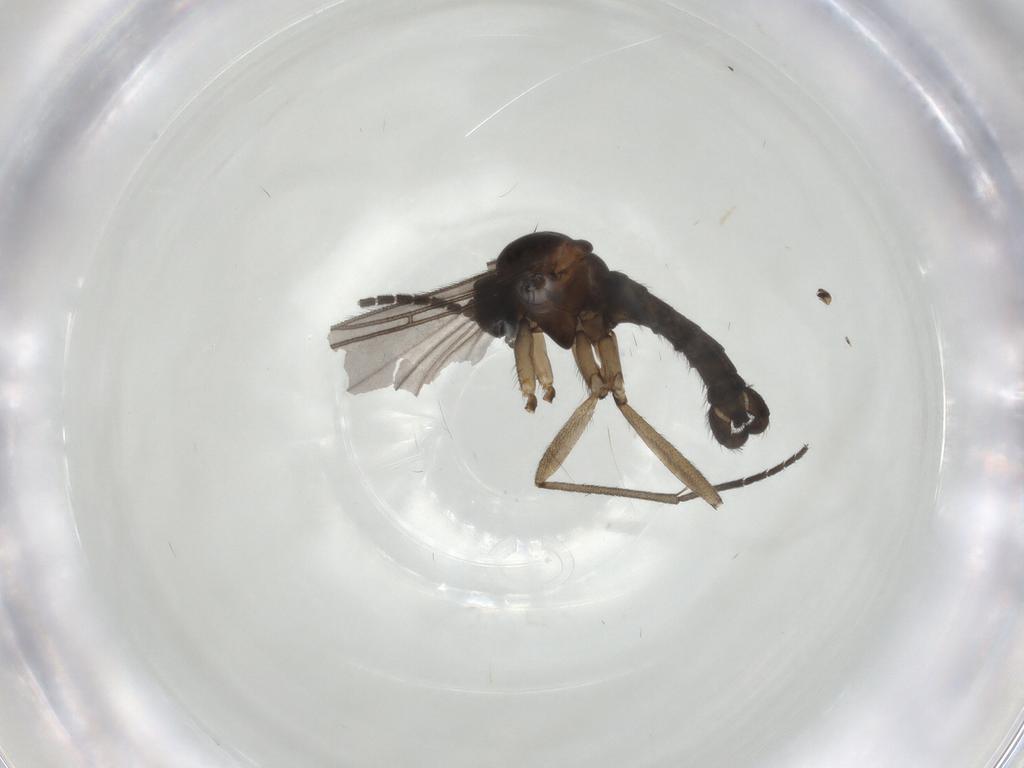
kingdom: Animalia
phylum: Arthropoda
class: Insecta
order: Diptera
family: Sciaridae
